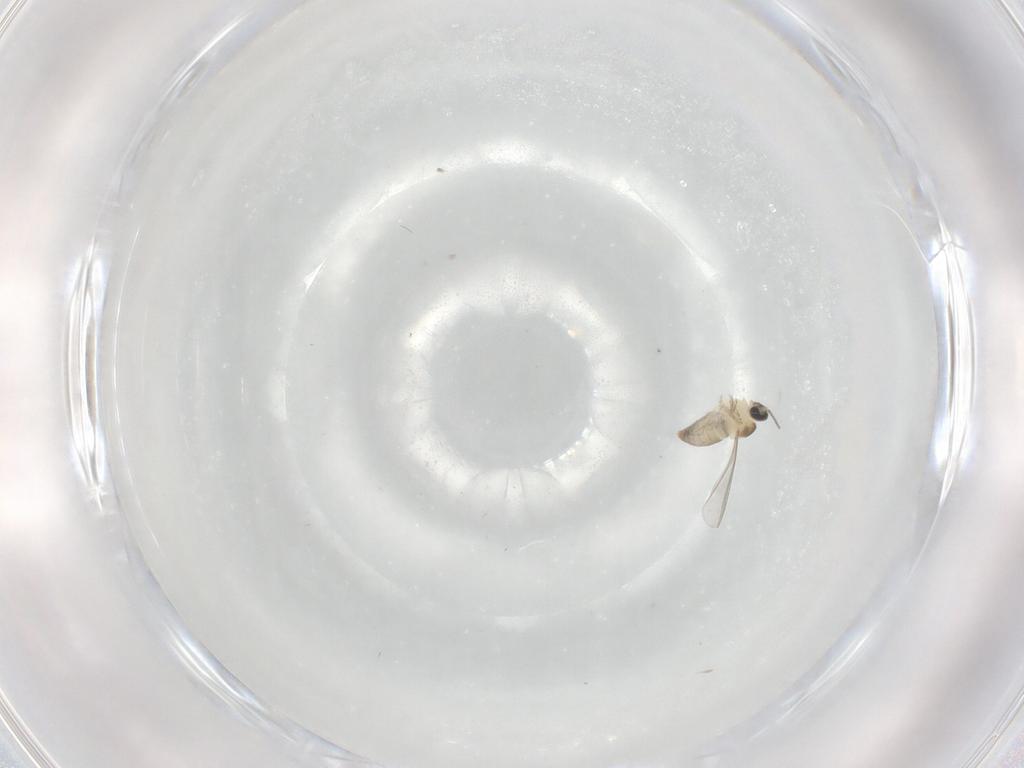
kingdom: Animalia
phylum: Arthropoda
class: Insecta
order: Diptera
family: Cecidomyiidae
